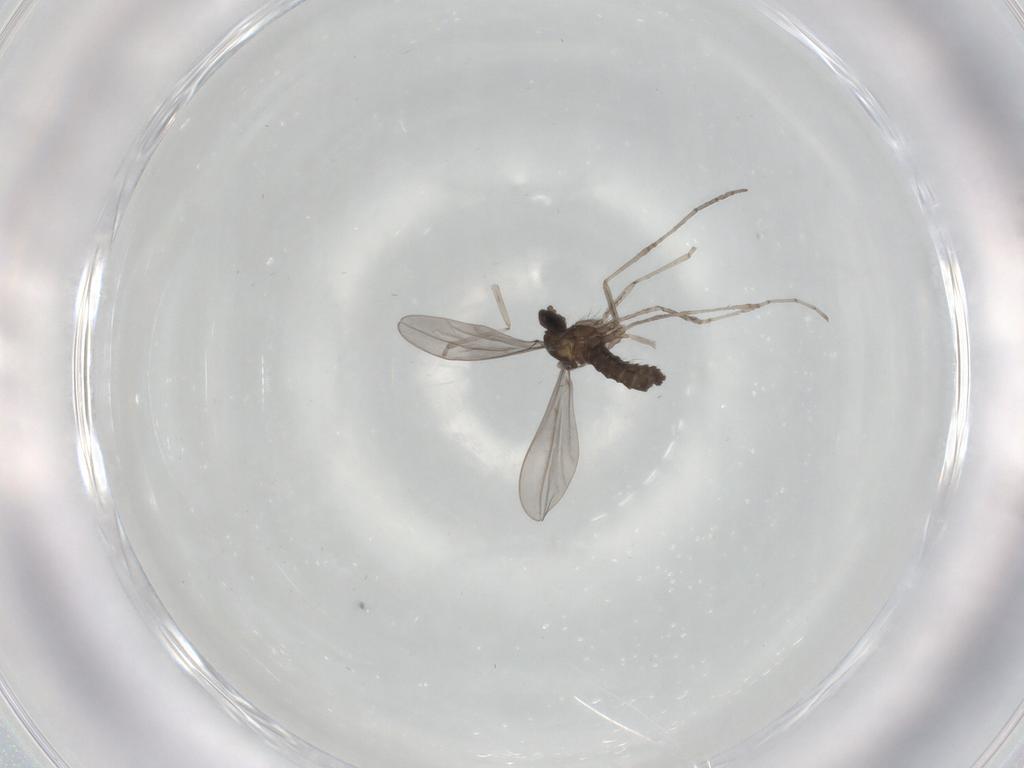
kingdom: Animalia
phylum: Arthropoda
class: Insecta
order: Diptera
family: Cecidomyiidae
